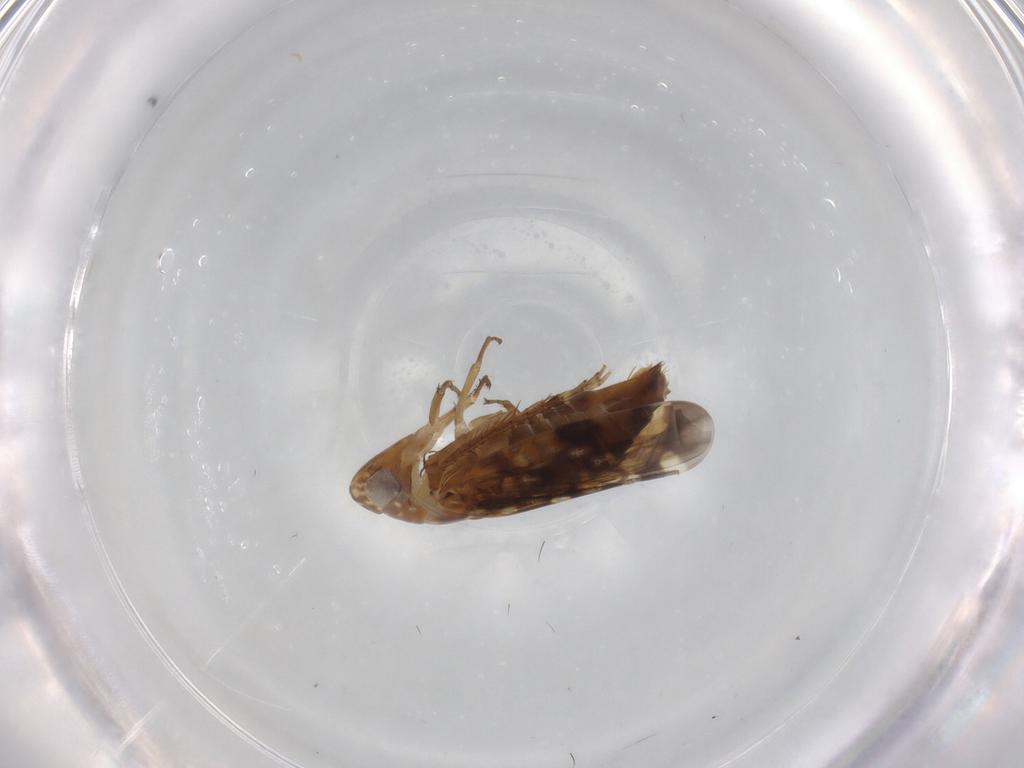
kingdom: Animalia
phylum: Arthropoda
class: Insecta
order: Hemiptera
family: Cicadellidae
